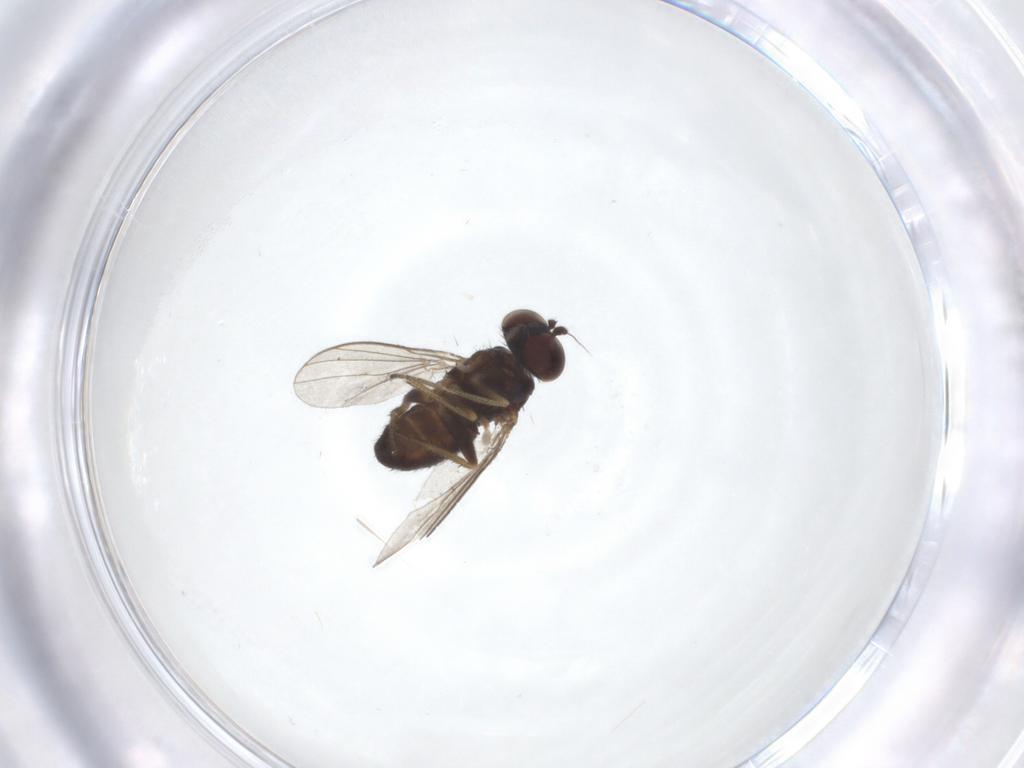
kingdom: Animalia
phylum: Arthropoda
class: Insecta
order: Diptera
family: Dolichopodidae
